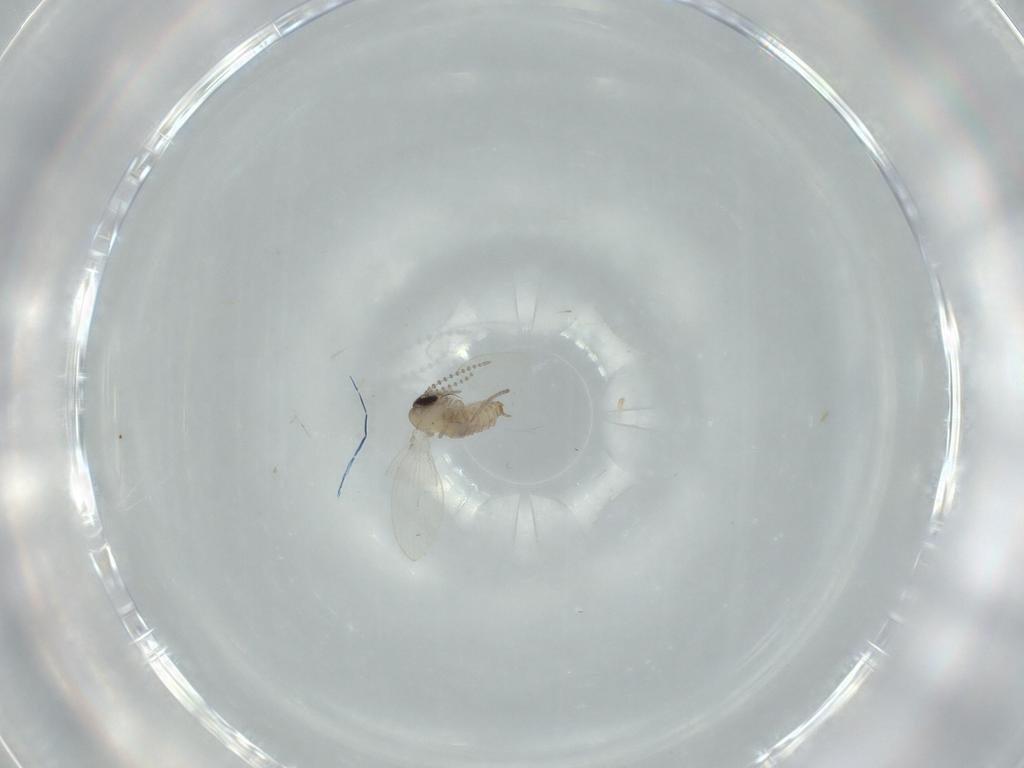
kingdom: Animalia
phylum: Arthropoda
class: Insecta
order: Diptera
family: Psychodidae
